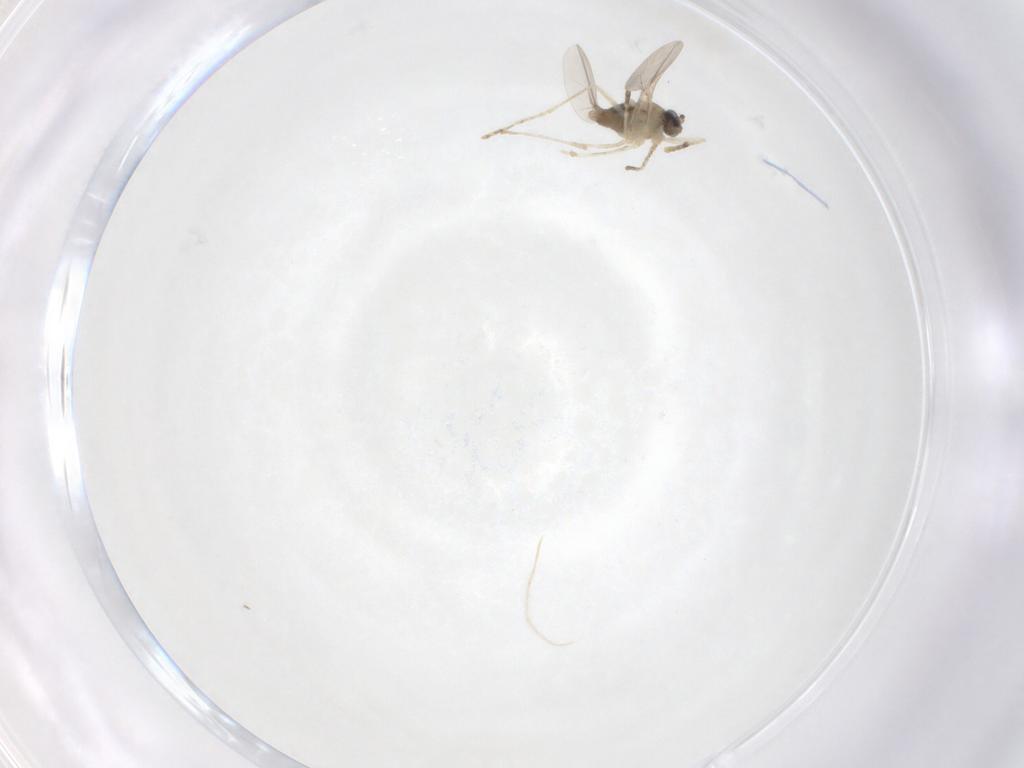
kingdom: Animalia
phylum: Arthropoda
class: Insecta
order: Diptera
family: Cecidomyiidae
